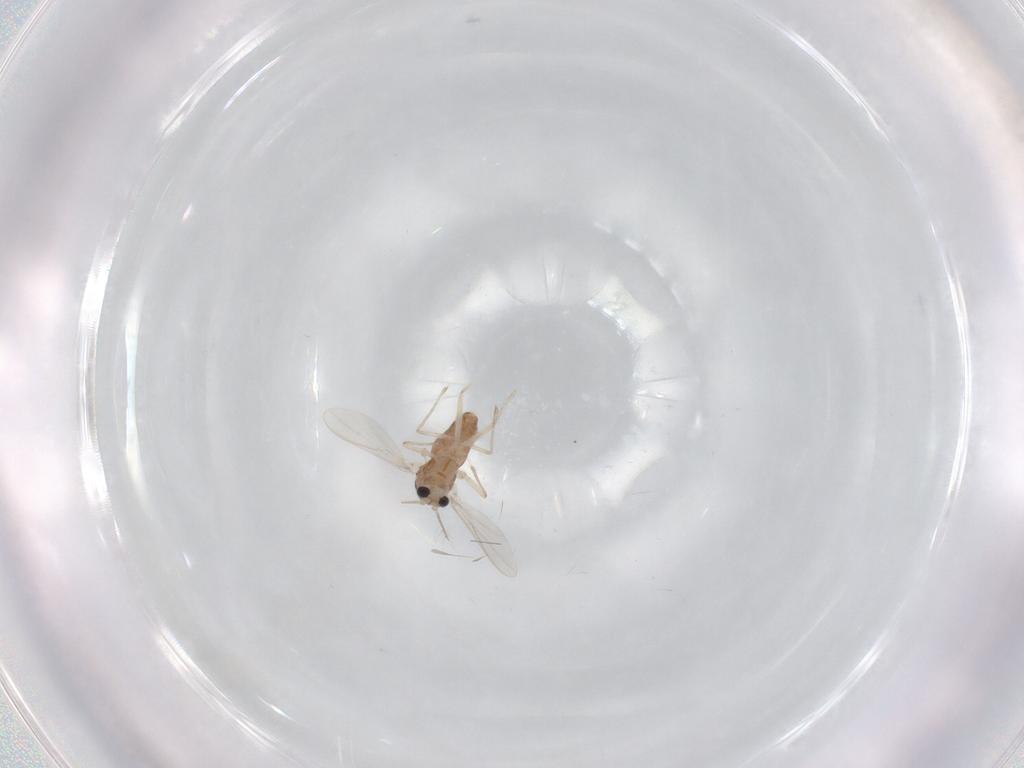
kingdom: Animalia
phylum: Arthropoda
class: Insecta
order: Diptera
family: Chironomidae
